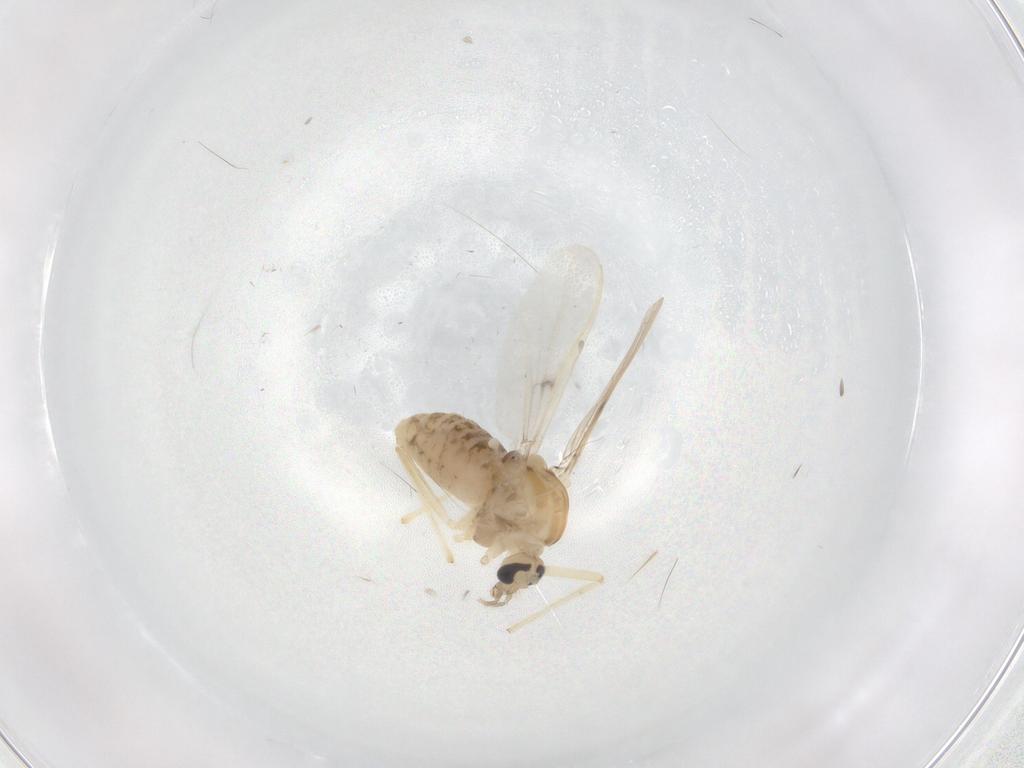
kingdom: Animalia
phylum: Arthropoda
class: Insecta
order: Diptera
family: Chironomidae
